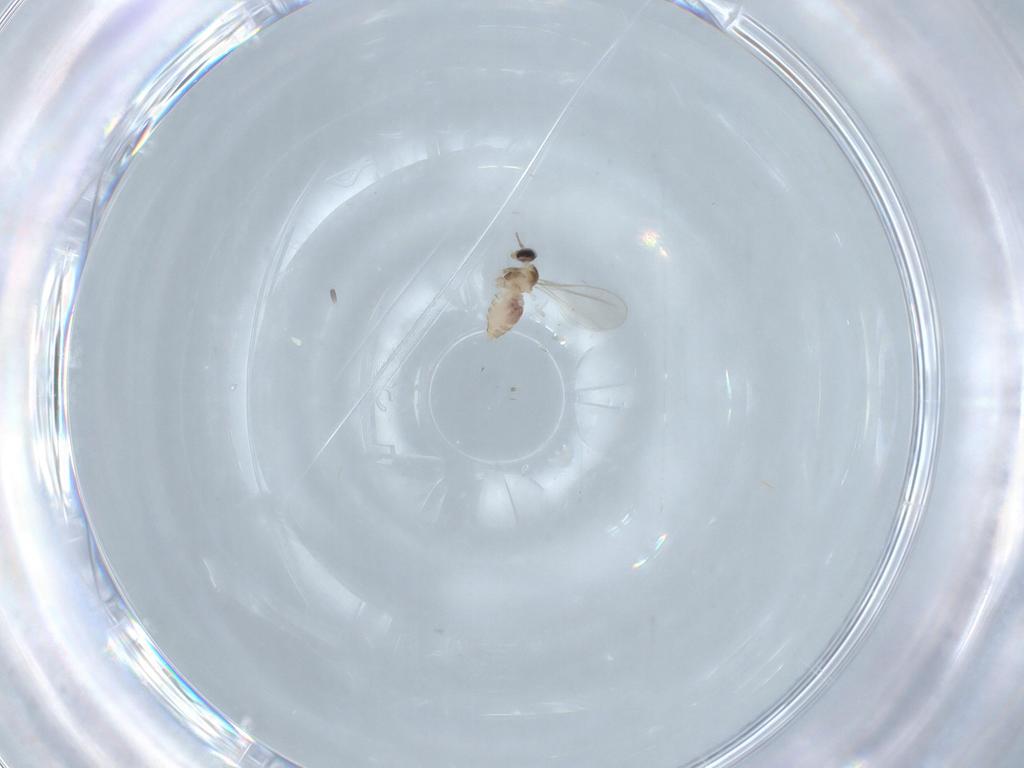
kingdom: Animalia
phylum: Arthropoda
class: Insecta
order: Diptera
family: Cecidomyiidae
